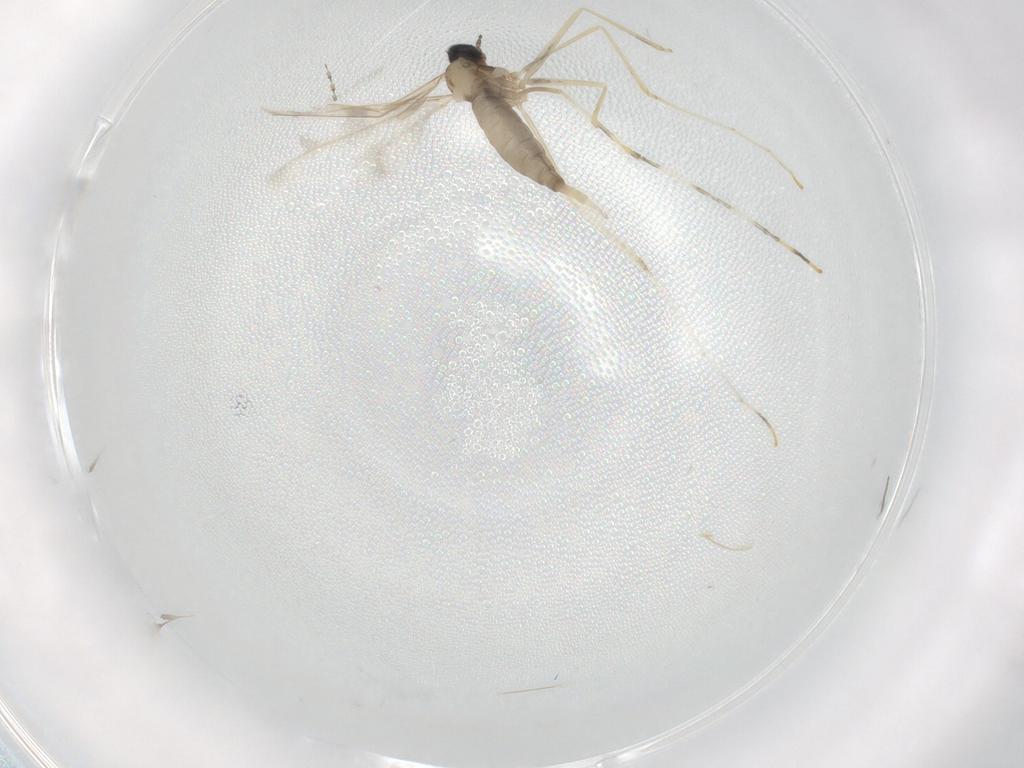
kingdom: Animalia
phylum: Arthropoda
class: Insecta
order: Diptera
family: Cecidomyiidae
